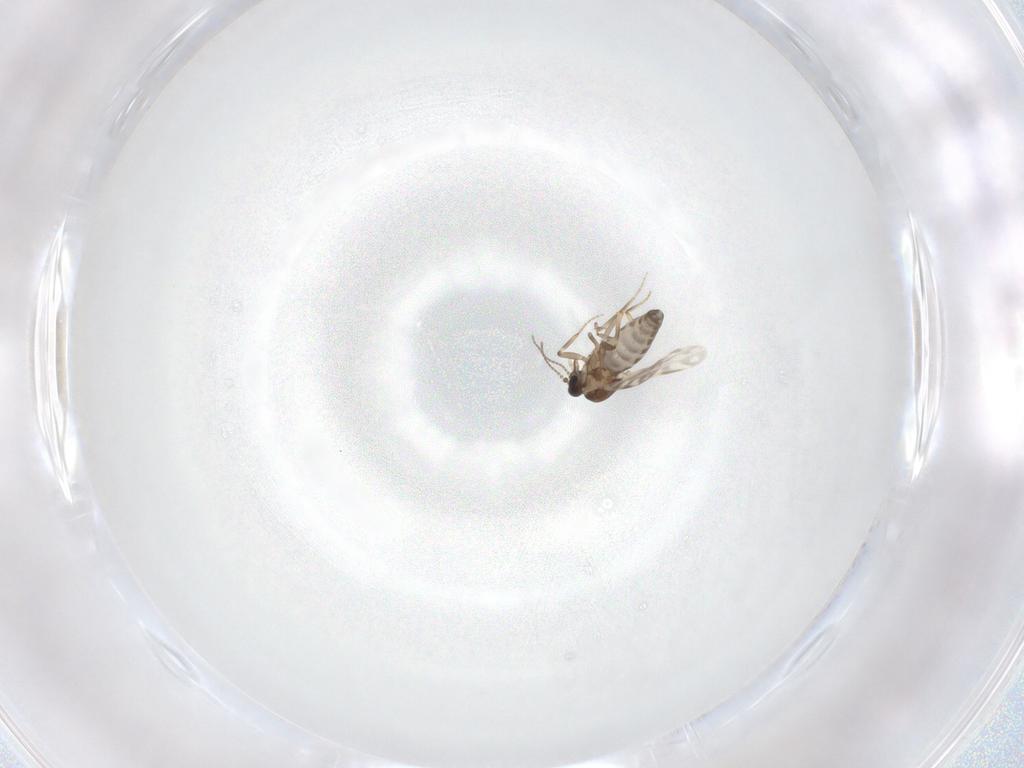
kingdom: Animalia
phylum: Arthropoda
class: Insecta
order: Diptera
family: Ceratopogonidae
